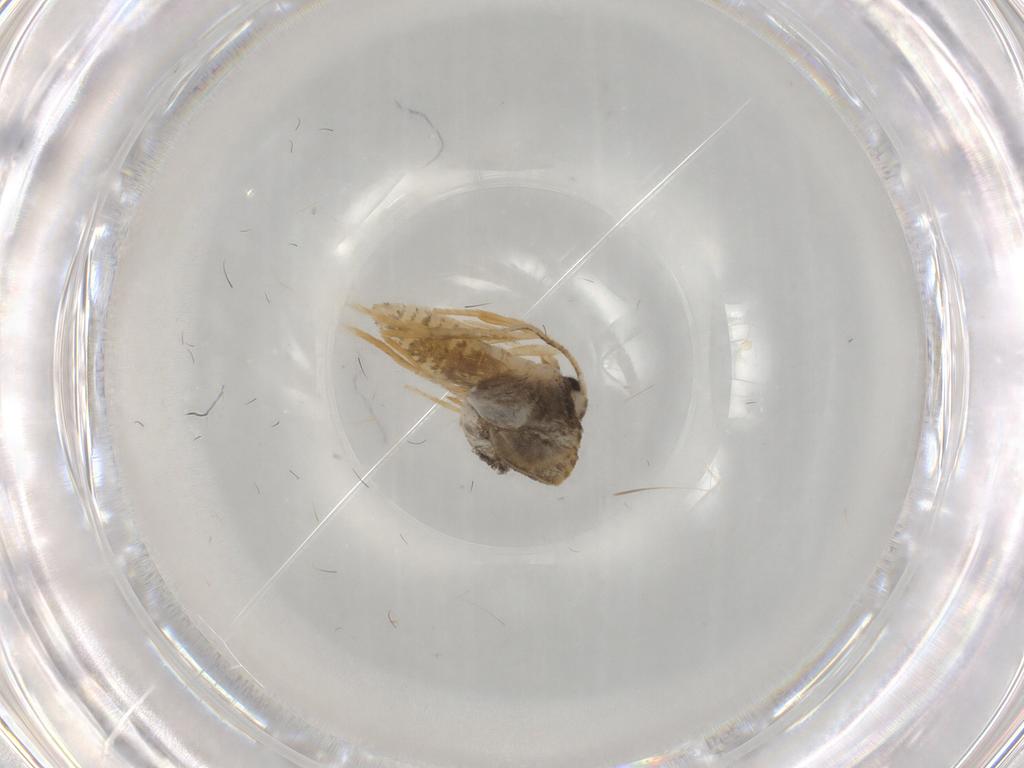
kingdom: Animalia
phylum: Arthropoda
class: Insecta
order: Lepidoptera
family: Psychidae
